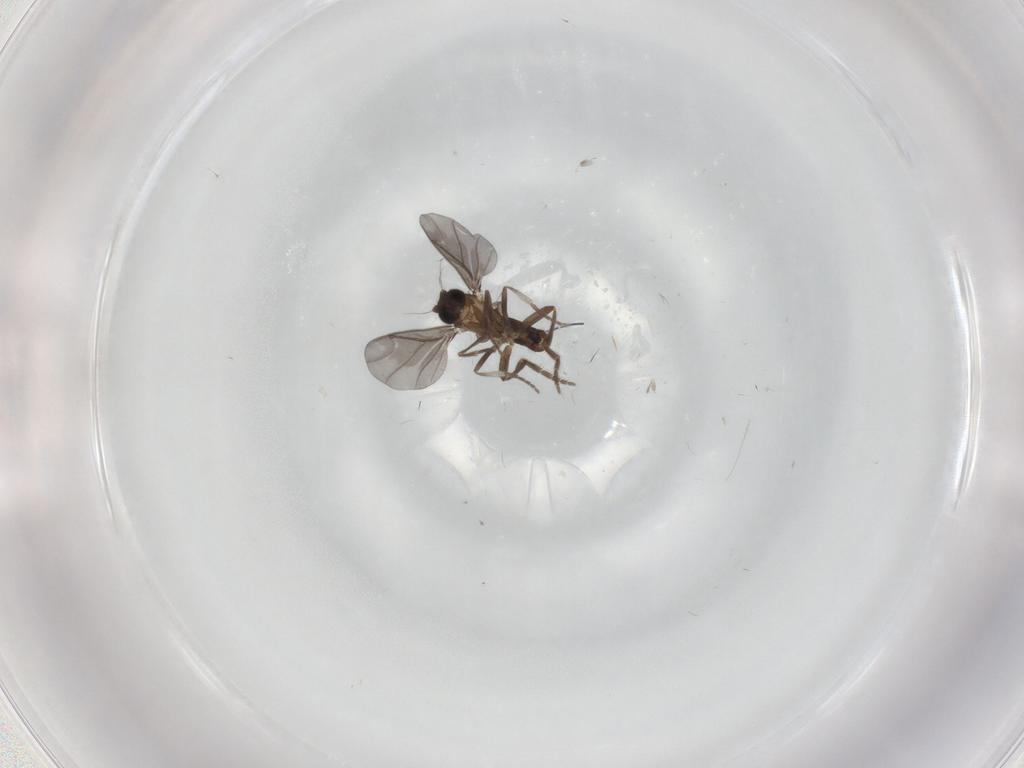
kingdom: Animalia
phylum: Arthropoda
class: Insecta
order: Diptera
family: Phoridae
